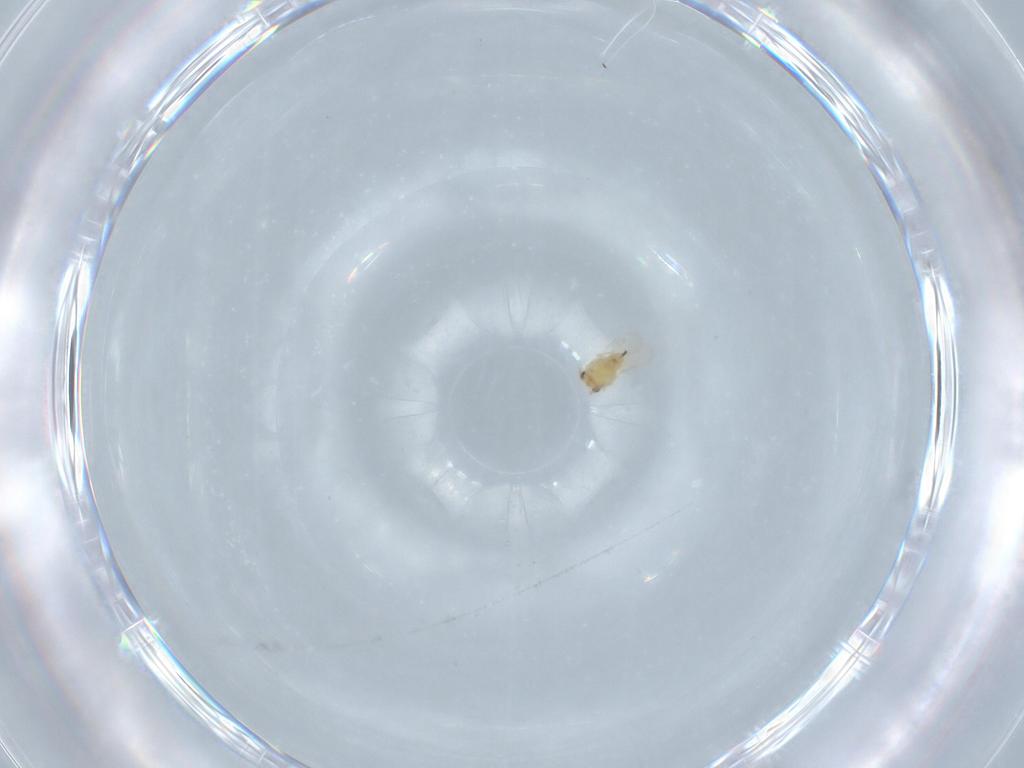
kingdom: Animalia
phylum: Arthropoda
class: Insecta
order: Hymenoptera
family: Aphelinidae
